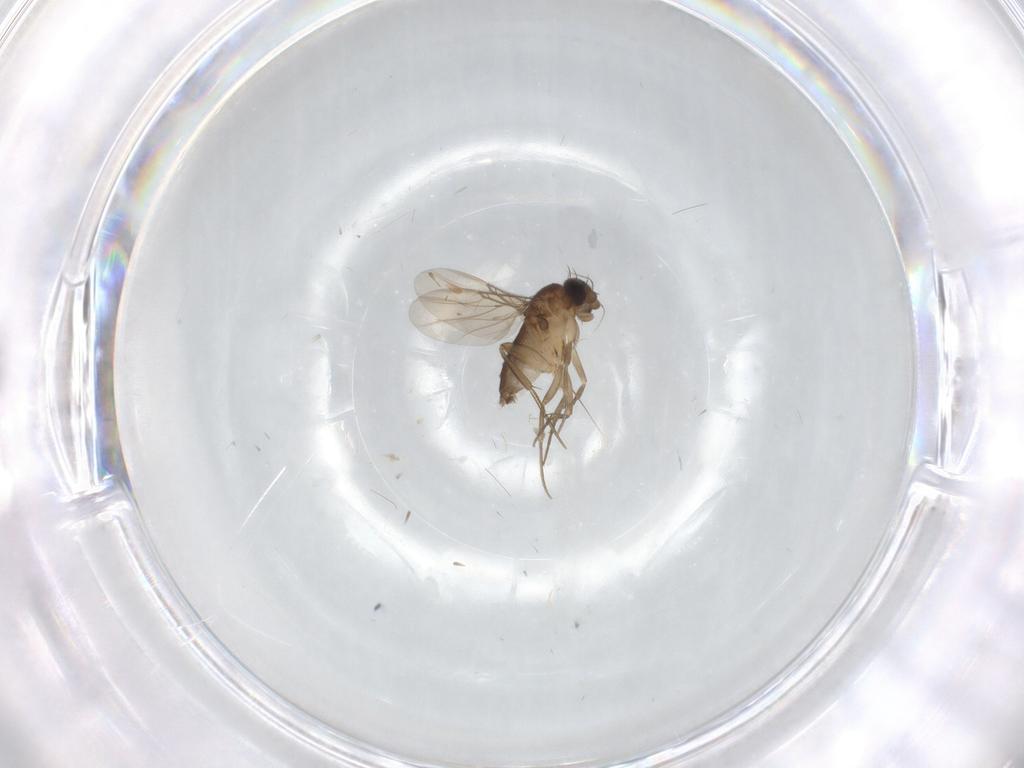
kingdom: Animalia
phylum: Arthropoda
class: Insecta
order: Diptera
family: Phoridae
